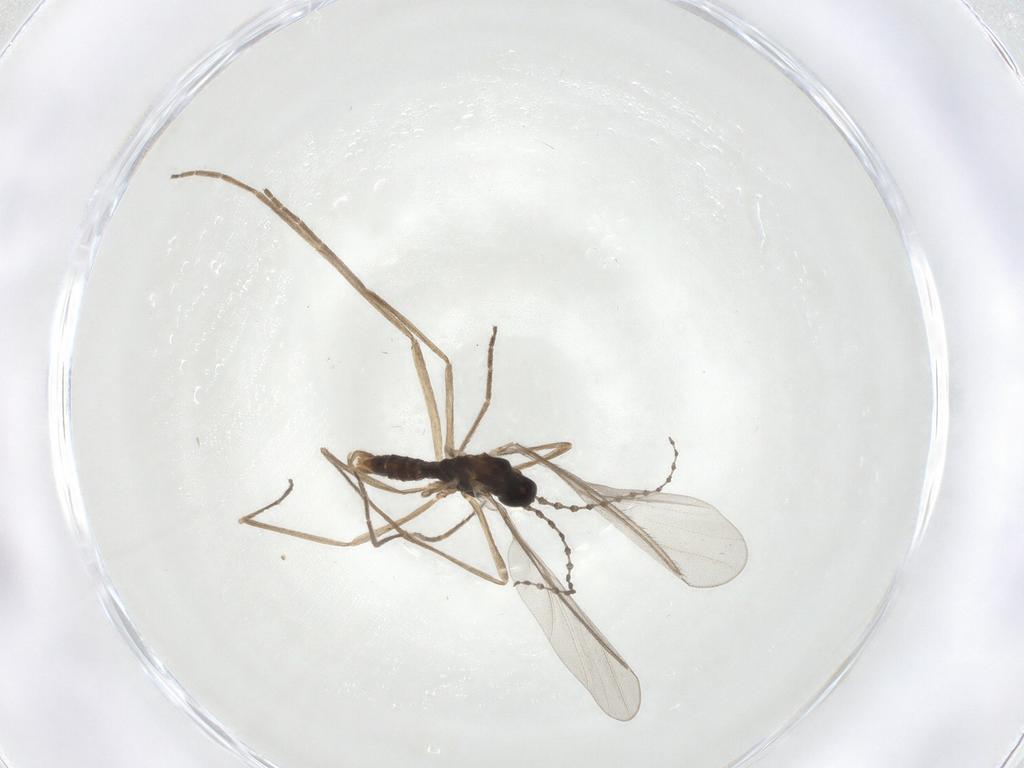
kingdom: Animalia
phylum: Arthropoda
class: Insecta
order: Diptera
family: Cecidomyiidae
